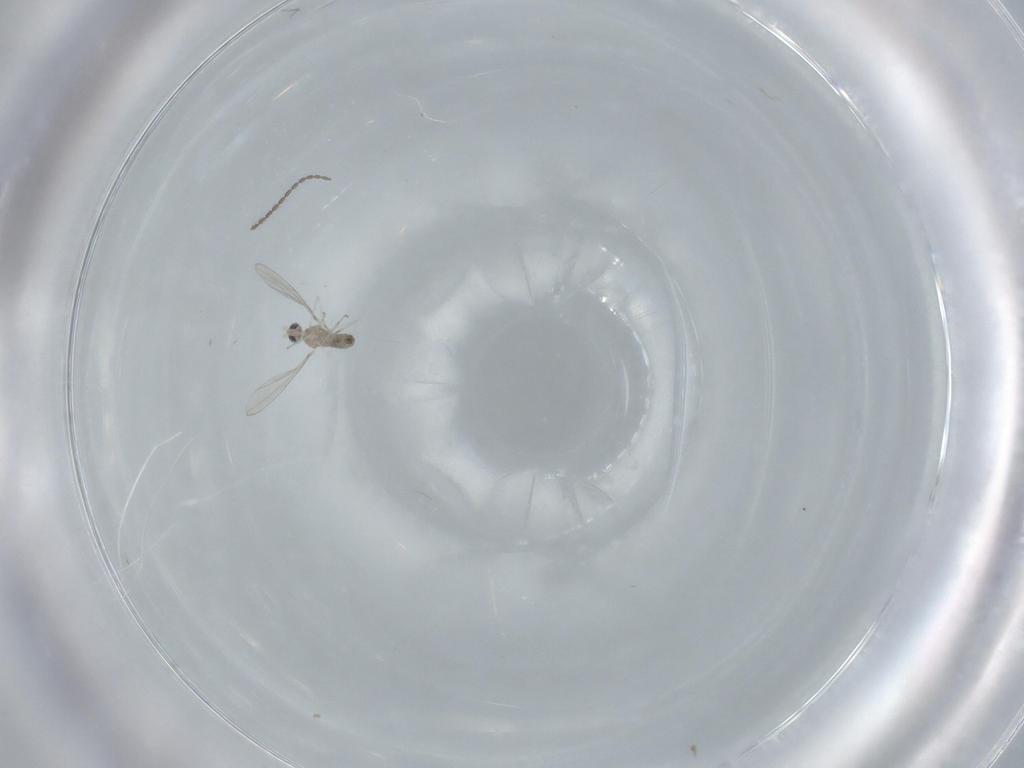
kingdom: Animalia
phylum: Arthropoda
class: Insecta
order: Diptera
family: Cecidomyiidae
